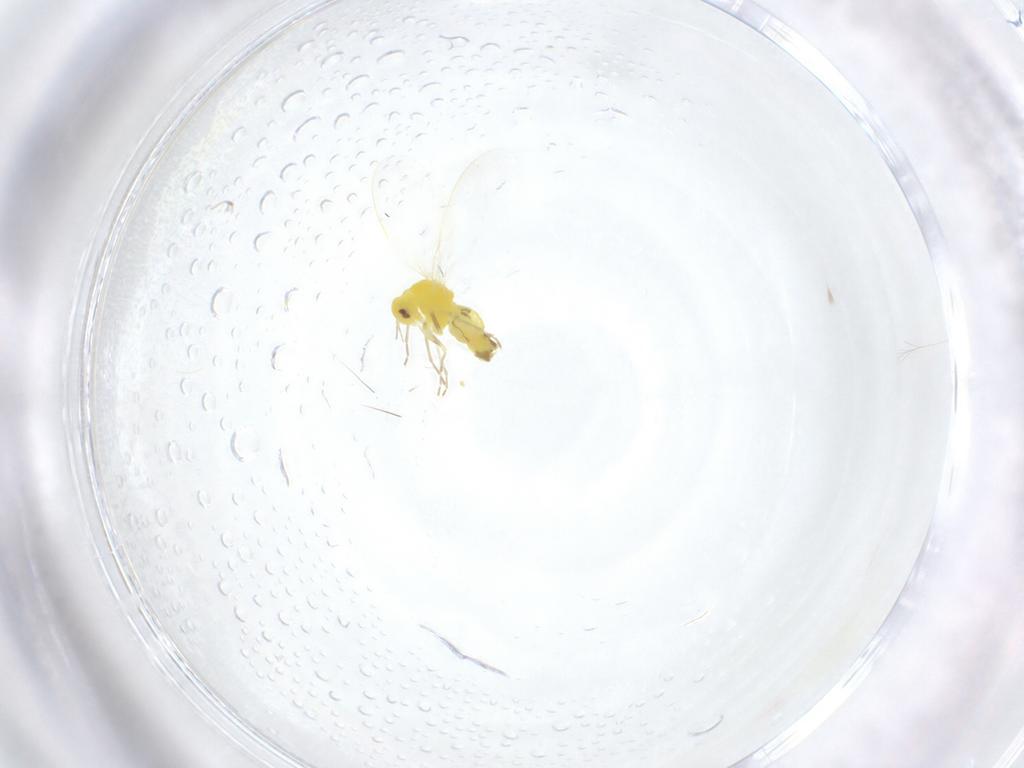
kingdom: Animalia
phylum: Arthropoda
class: Insecta
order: Hemiptera
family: Aleyrodidae
